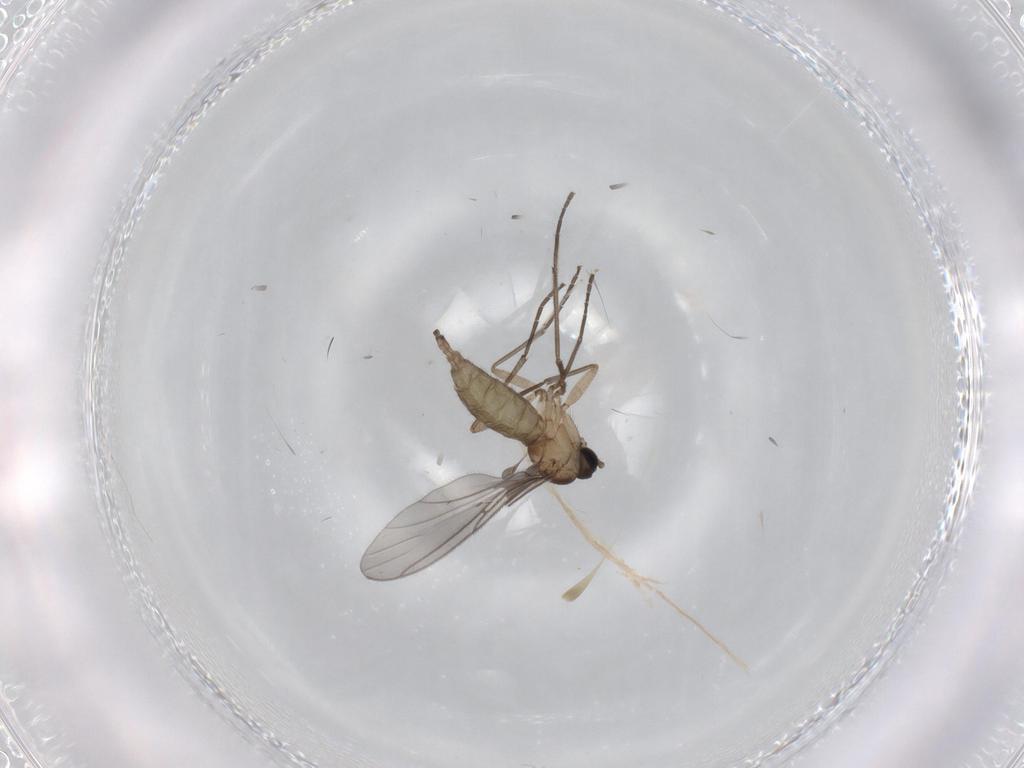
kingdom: Animalia
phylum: Arthropoda
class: Insecta
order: Diptera
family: Sciaridae
